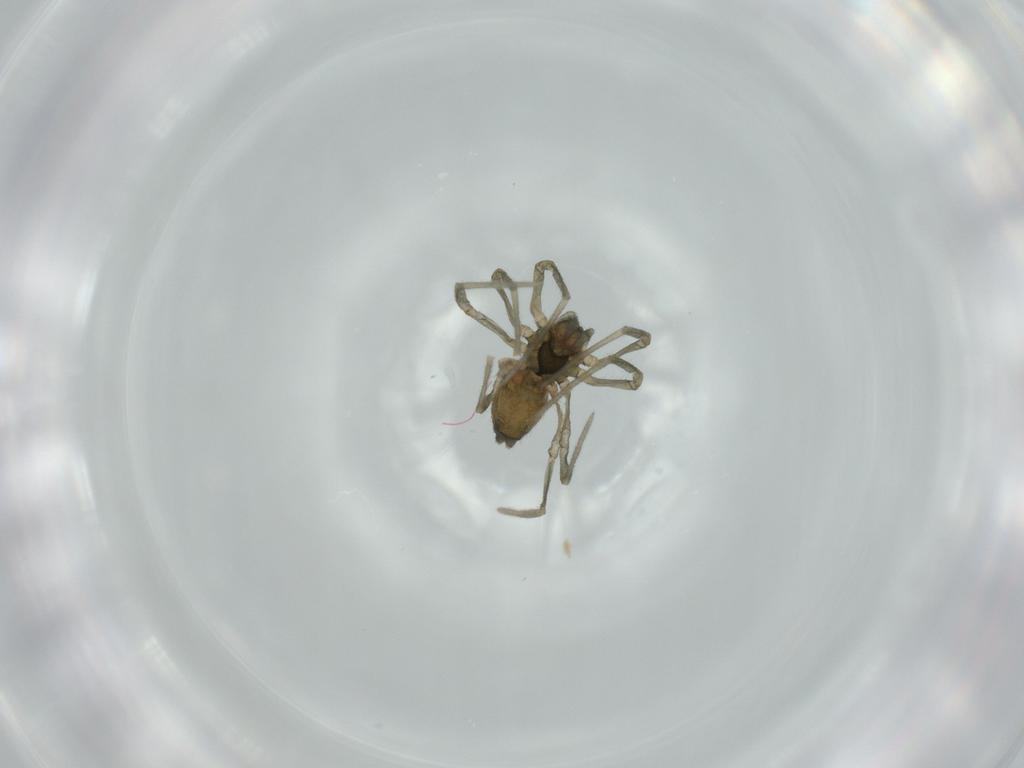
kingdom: Animalia
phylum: Arthropoda
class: Arachnida
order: Araneae
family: Linyphiidae
